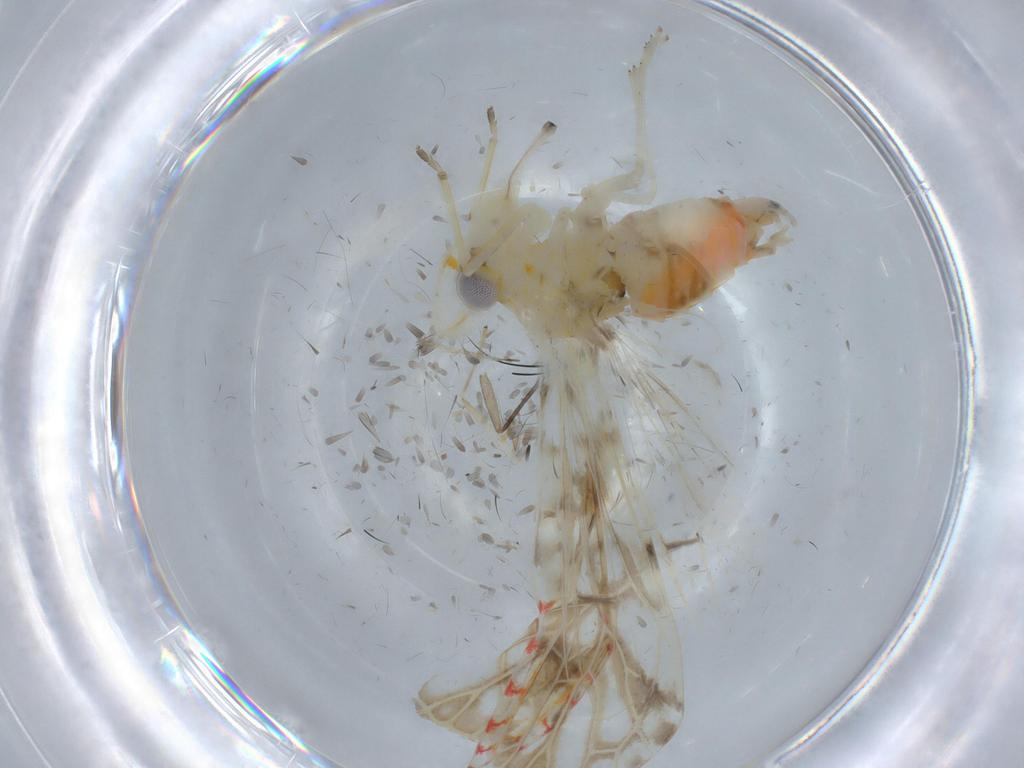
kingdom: Animalia
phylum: Arthropoda
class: Insecta
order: Hemiptera
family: Derbidae
